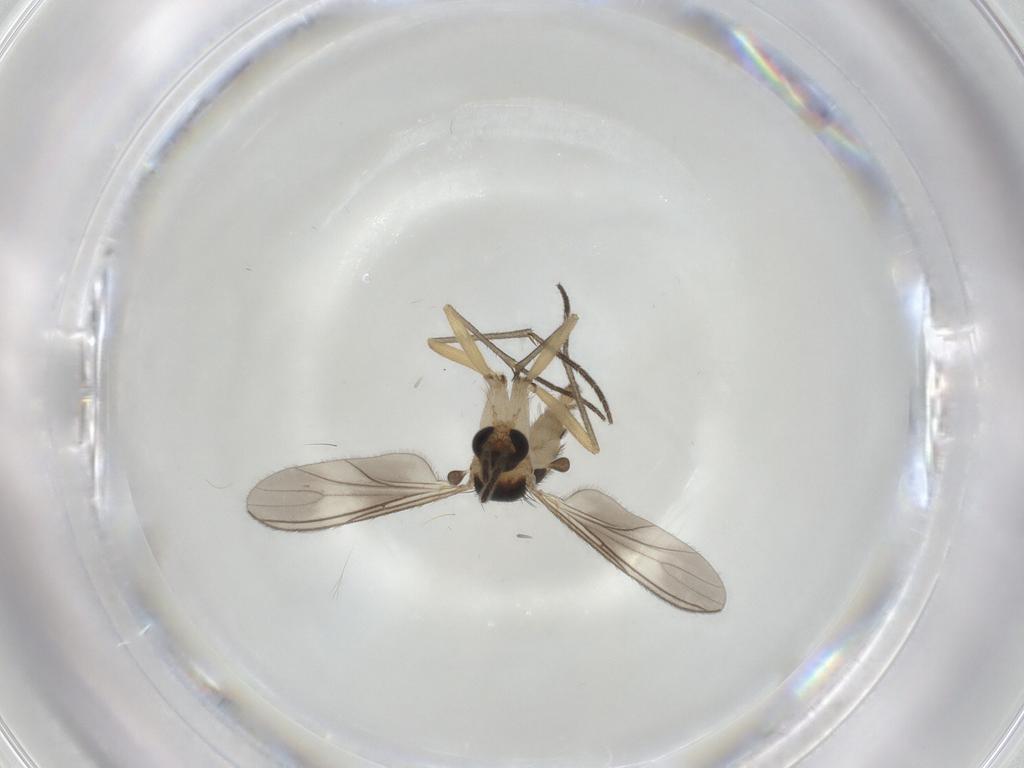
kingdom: Animalia
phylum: Arthropoda
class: Insecta
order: Diptera
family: Sciaridae
